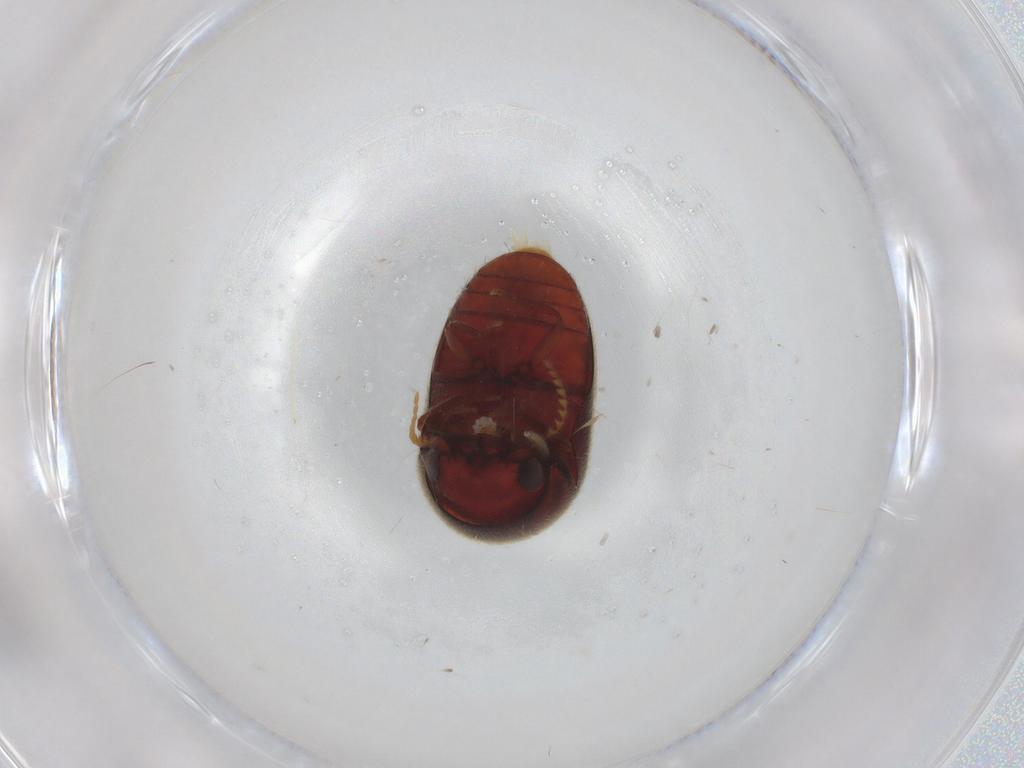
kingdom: Animalia
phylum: Arthropoda
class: Insecta
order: Coleoptera
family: Ptinidae
